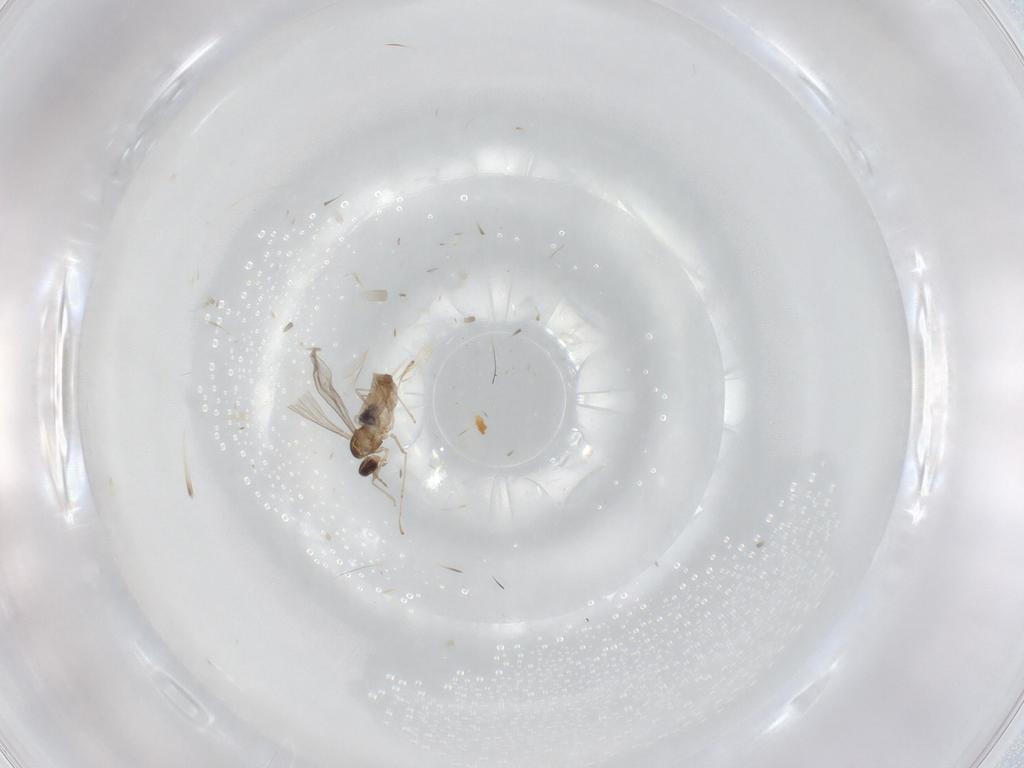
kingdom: Animalia
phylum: Arthropoda
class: Insecta
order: Diptera
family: Cecidomyiidae
